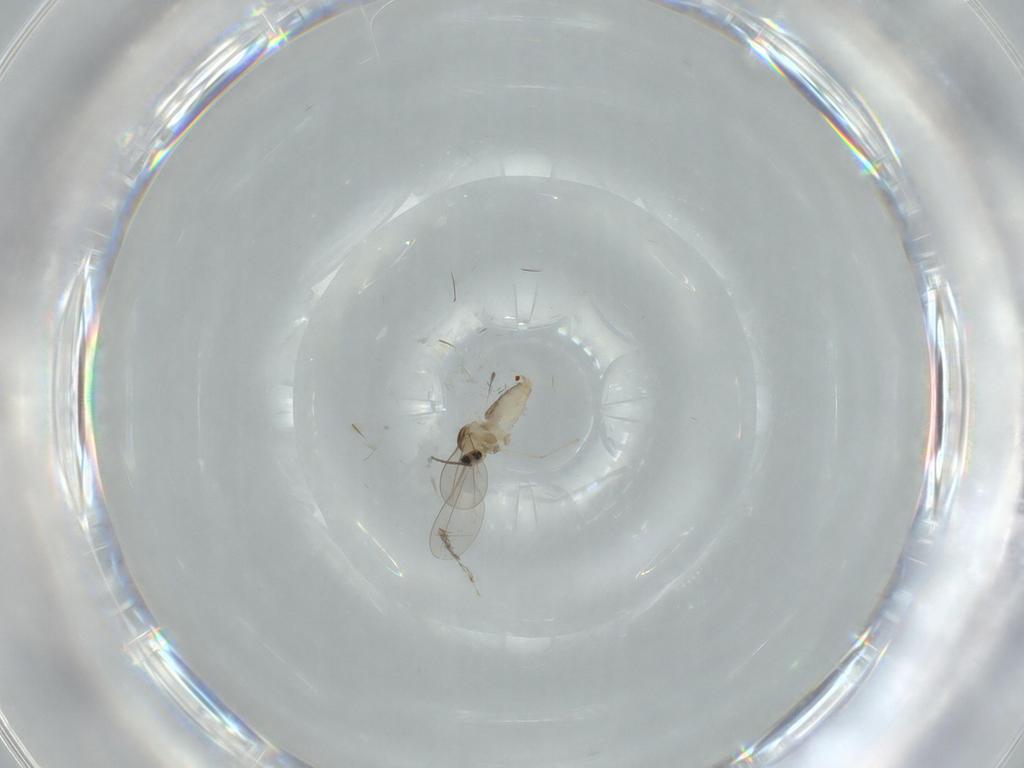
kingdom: Animalia
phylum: Arthropoda
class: Insecta
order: Diptera
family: Cecidomyiidae
